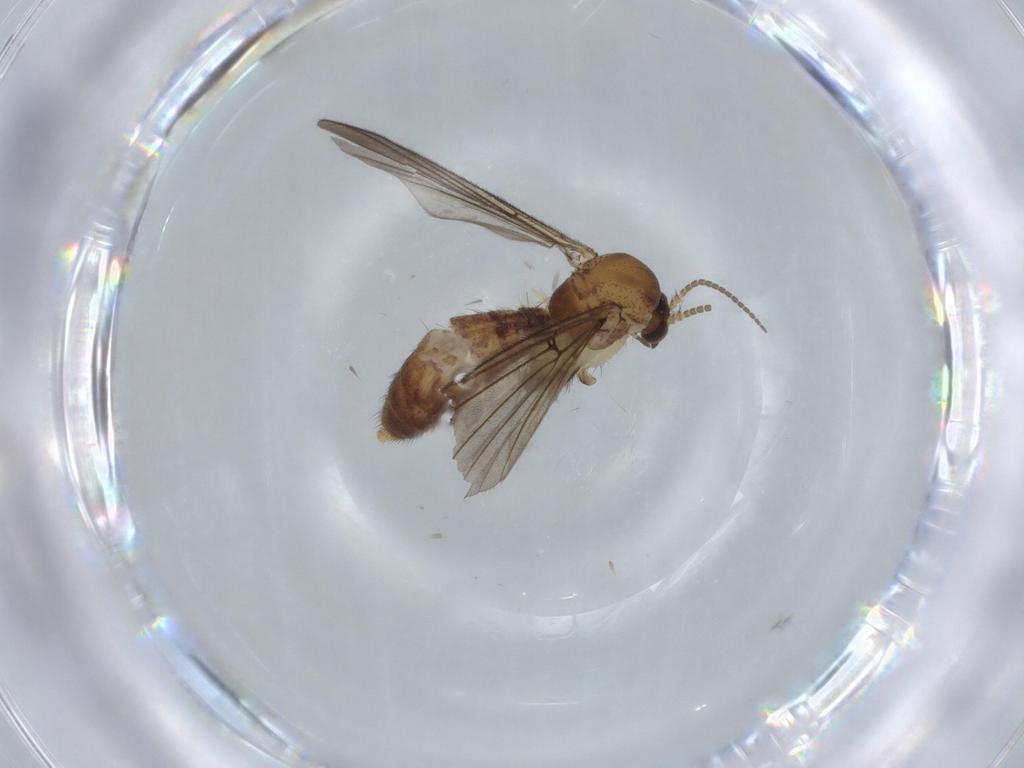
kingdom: Animalia
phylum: Arthropoda
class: Insecta
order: Diptera
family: Mycetophilidae
